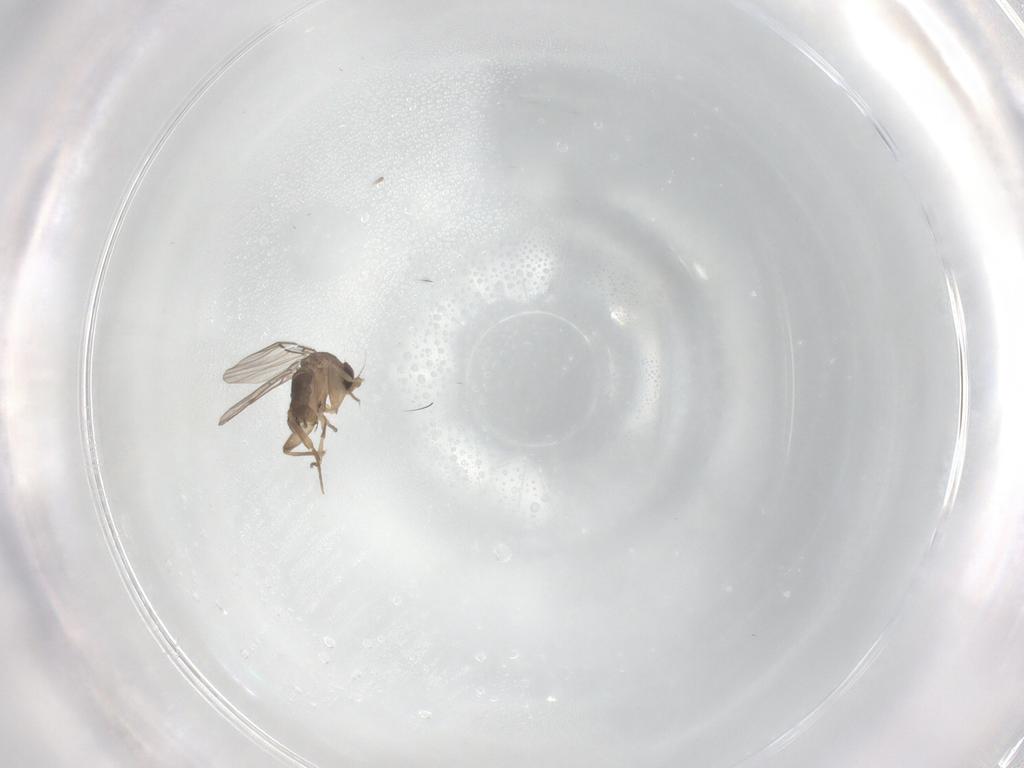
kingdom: Animalia
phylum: Arthropoda
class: Insecta
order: Diptera
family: Phoridae
